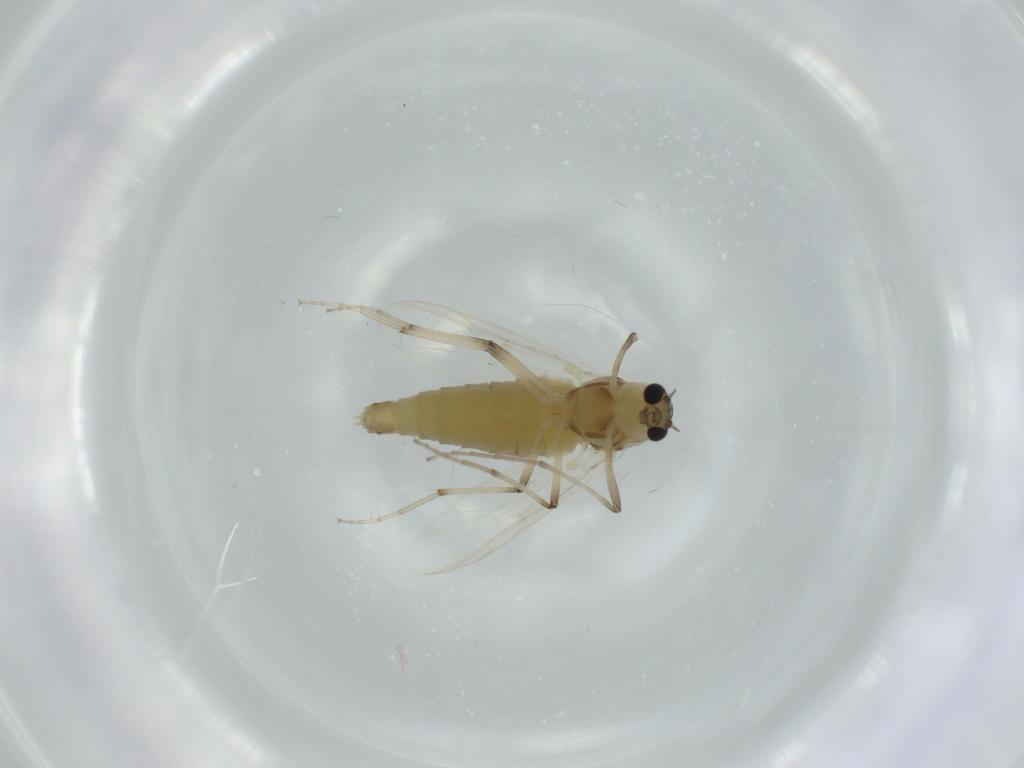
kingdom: Animalia
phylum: Arthropoda
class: Insecta
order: Diptera
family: Chironomidae
